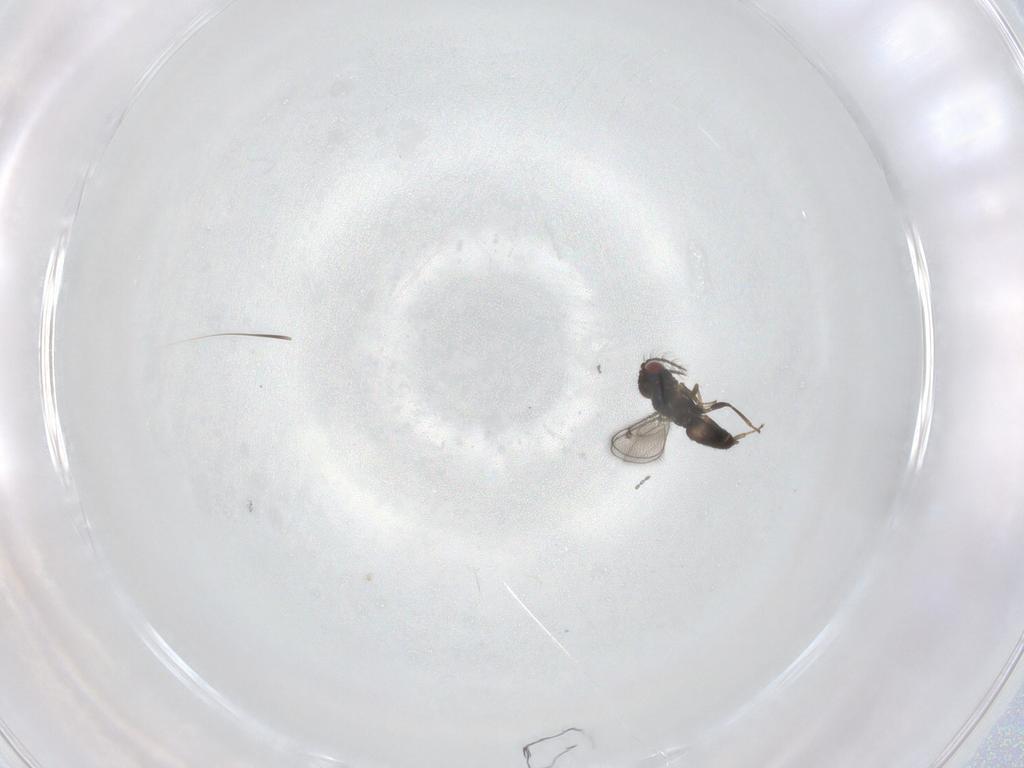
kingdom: Animalia
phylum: Arthropoda
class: Insecta
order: Hymenoptera
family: Eulophidae
